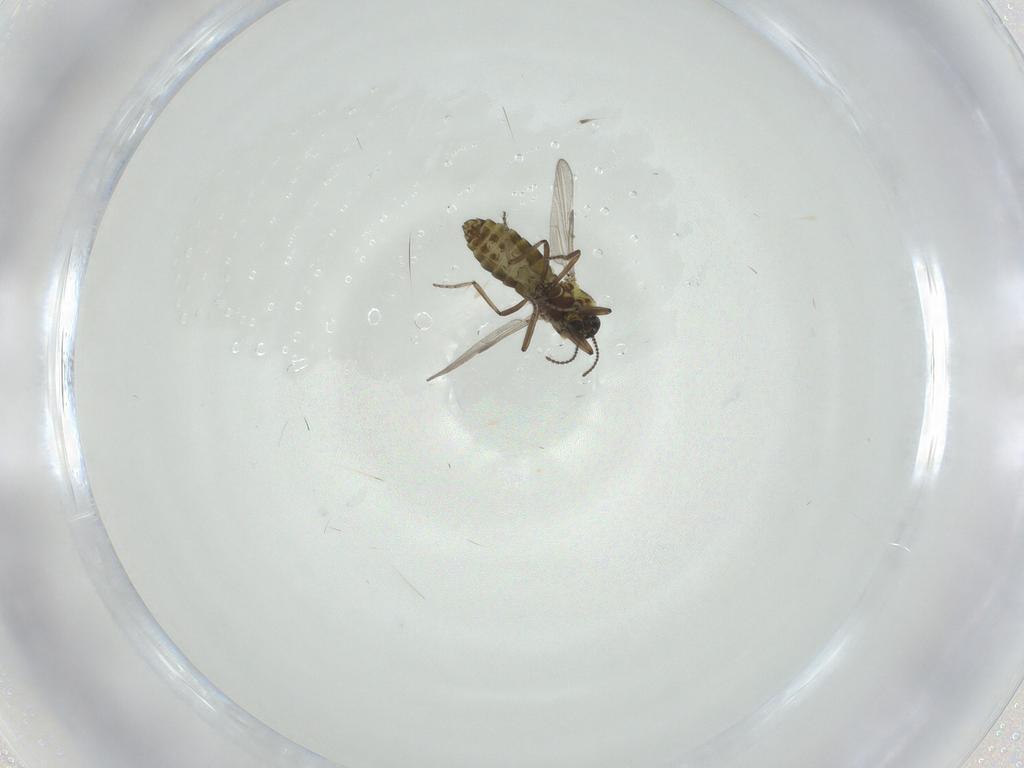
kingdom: Animalia
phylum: Arthropoda
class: Insecta
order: Diptera
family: Ceratopogonidae
